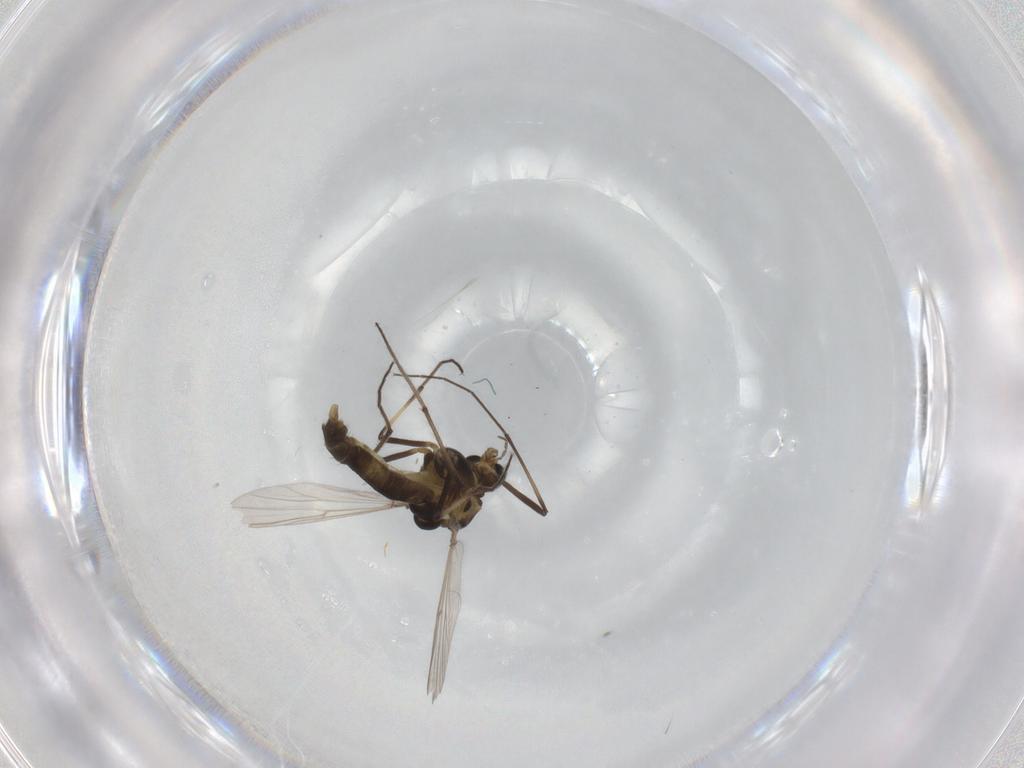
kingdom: Animalia
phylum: Arthropoda
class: Insecta
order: Diptera
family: Chironomidae
